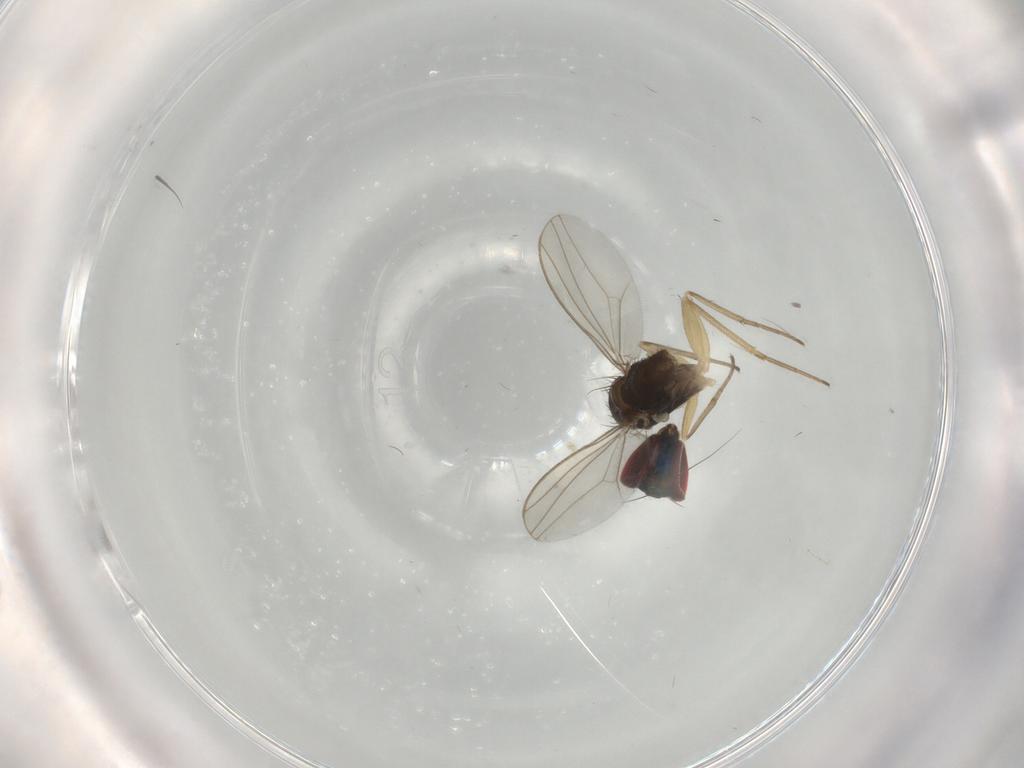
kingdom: Animalia
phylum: Arthropoda
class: Insecta
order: Diptera
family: Dolichopodidae
